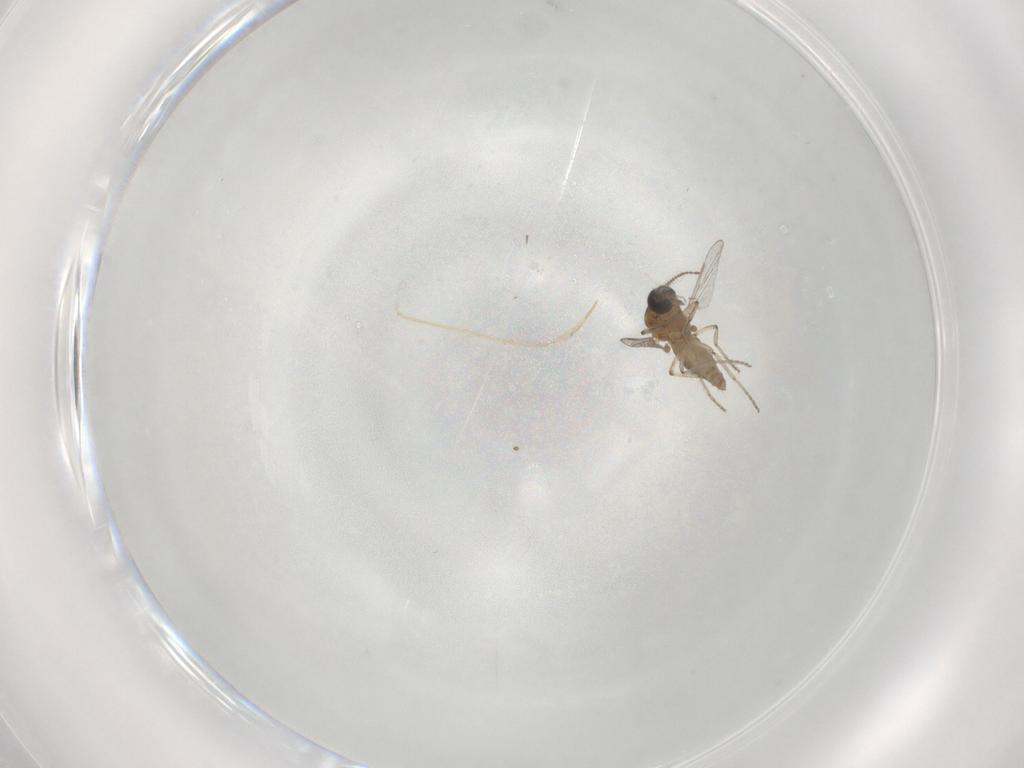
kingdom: Animalia
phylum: Arthropoda
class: Insecta
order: Diptera
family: Ceratopogonidae
